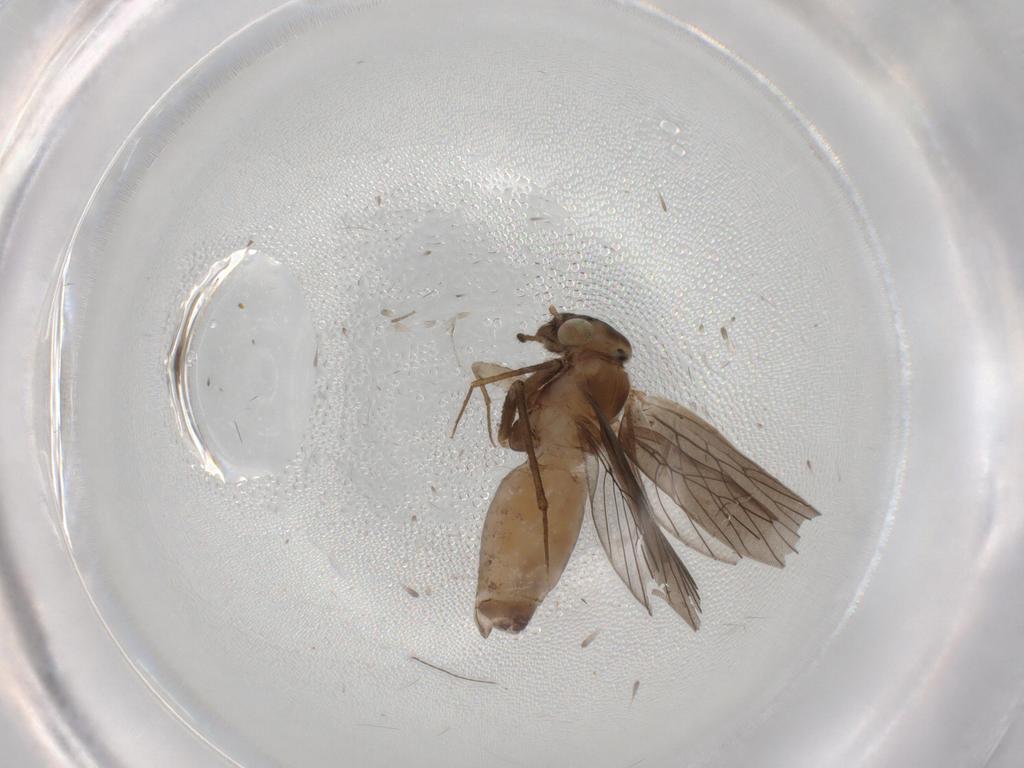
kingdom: Animalia
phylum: Arthropoda
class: Insecta
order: Psocodea
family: Lepidopsocidae
